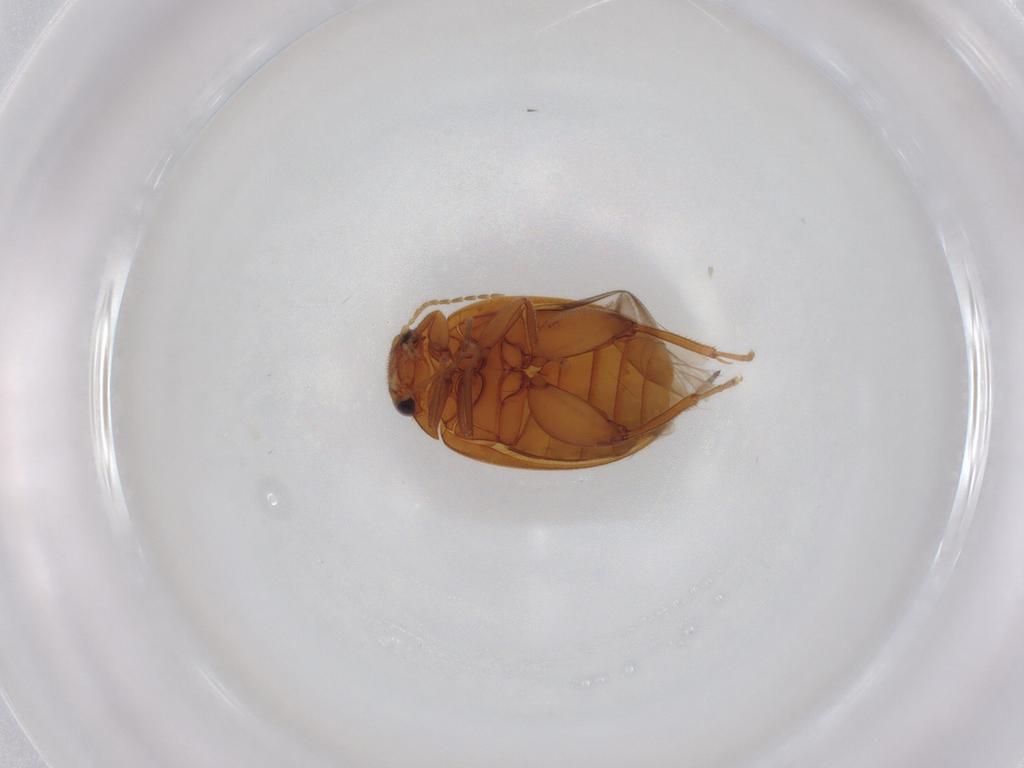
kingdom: Animalia
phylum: Arthropoda
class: Insecta
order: Coleoptera
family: Scirtidae
